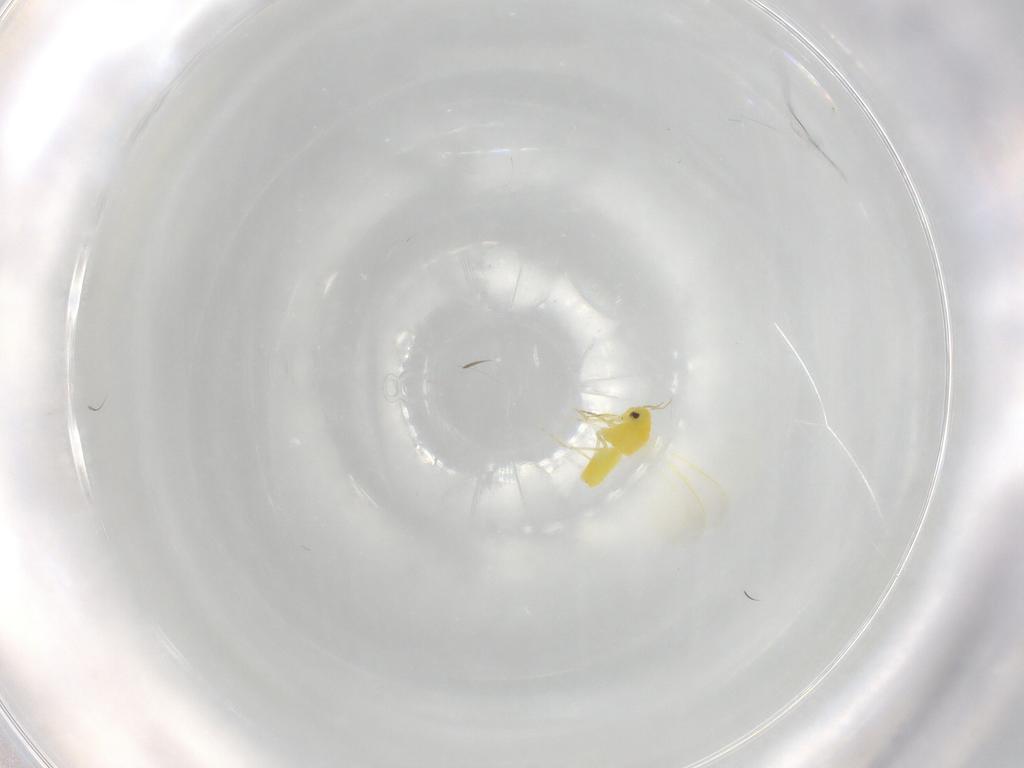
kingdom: Animalia
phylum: Arthropoda
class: Insecta
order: Hemiptera
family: Aleyrodidae
